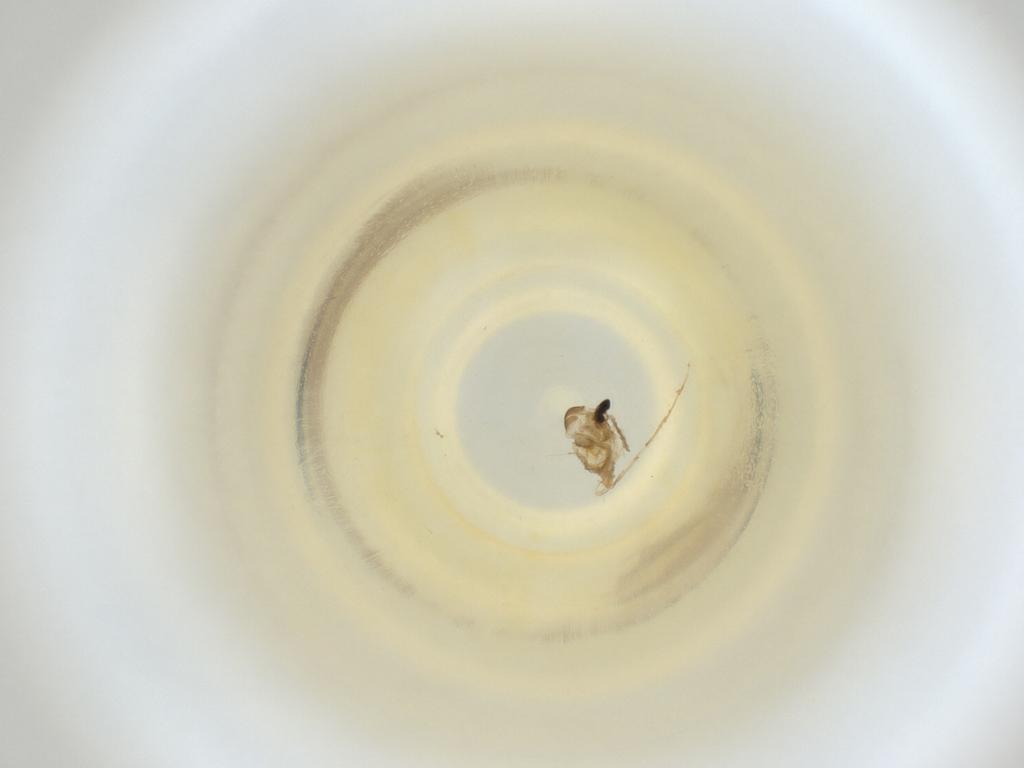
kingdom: Animalia
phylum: Arthropoda
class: Insecta
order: Diptera
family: Cecidomyiidae
